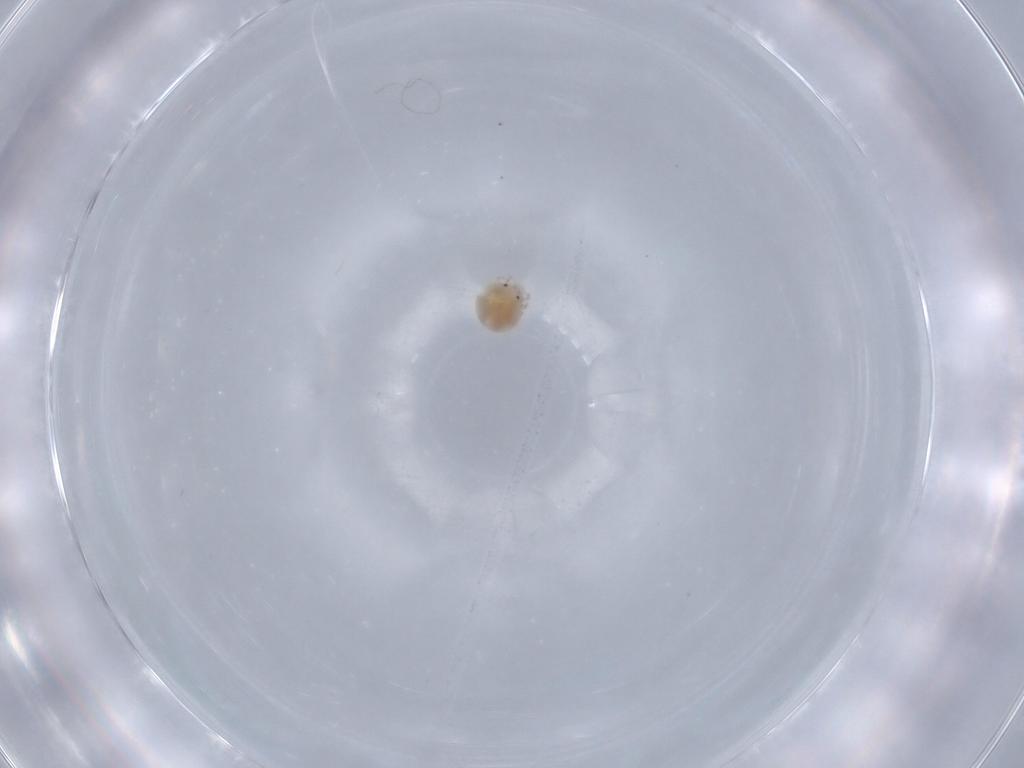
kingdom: Animalia
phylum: Arthropoda
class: Arachnida
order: Trombidiformes
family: Lebertiidae
